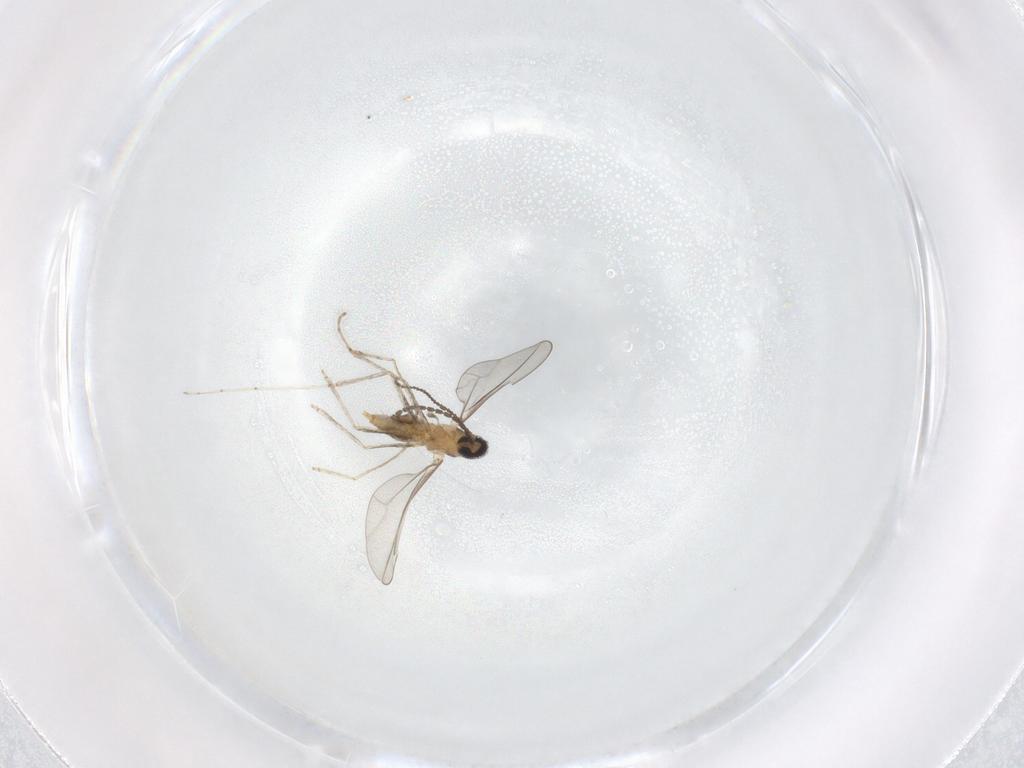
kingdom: Animalia
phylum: Arthropoda
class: Insecta
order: Diptera
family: Cecidomyiidae
